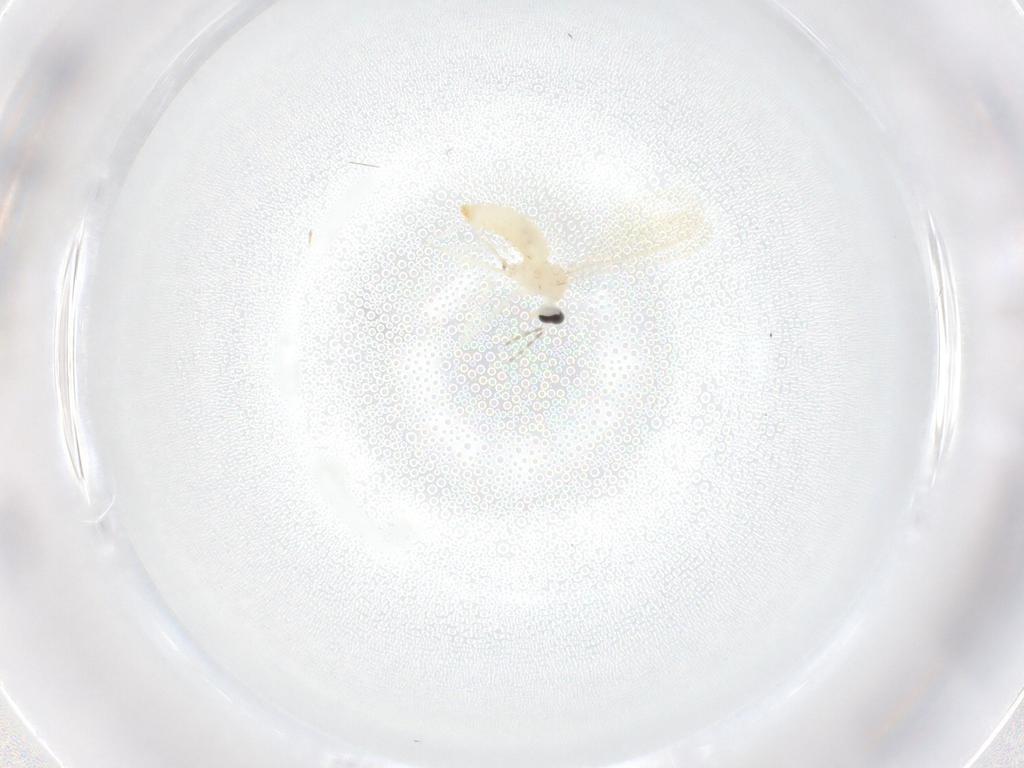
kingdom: Animalia
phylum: Arthropoda
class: Insecta
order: Diptera
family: Cecidomyiidae
